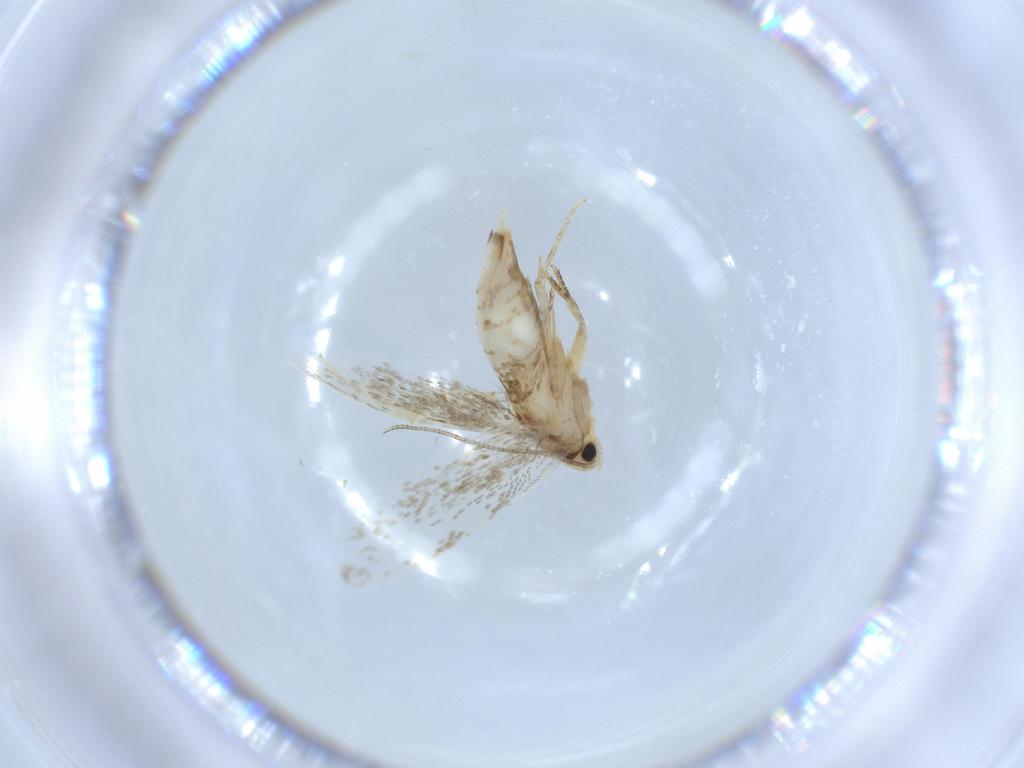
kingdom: Animalia
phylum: Arthropoda
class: Insecta
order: Lepidoptera
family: Tineidae
